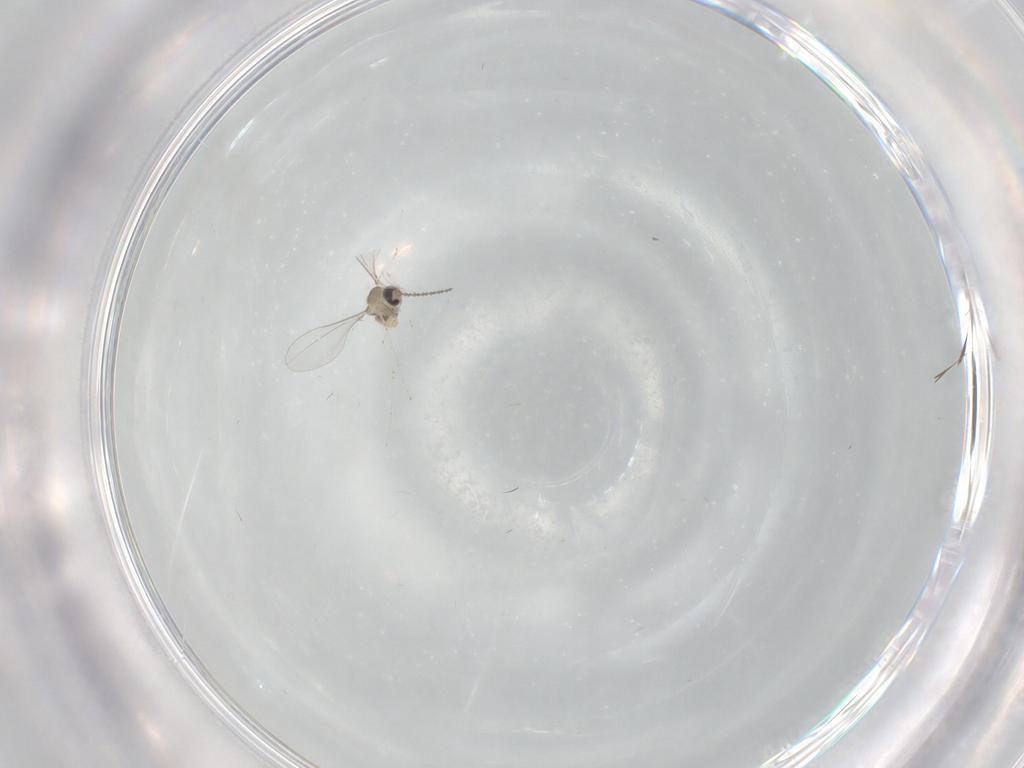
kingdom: Animalia
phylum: Arthropoda
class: Insecta
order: Diptera
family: Cecidomyiidae
